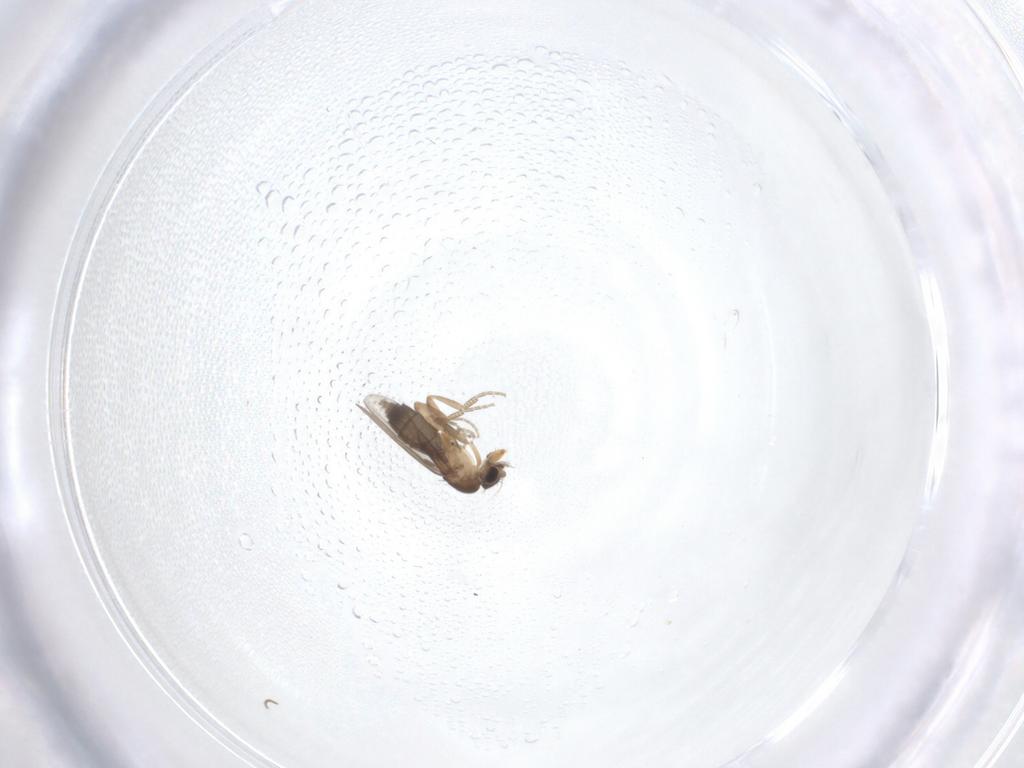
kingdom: Animalia
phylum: Arthropoda
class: Insecta
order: Diptera
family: Phoridae
